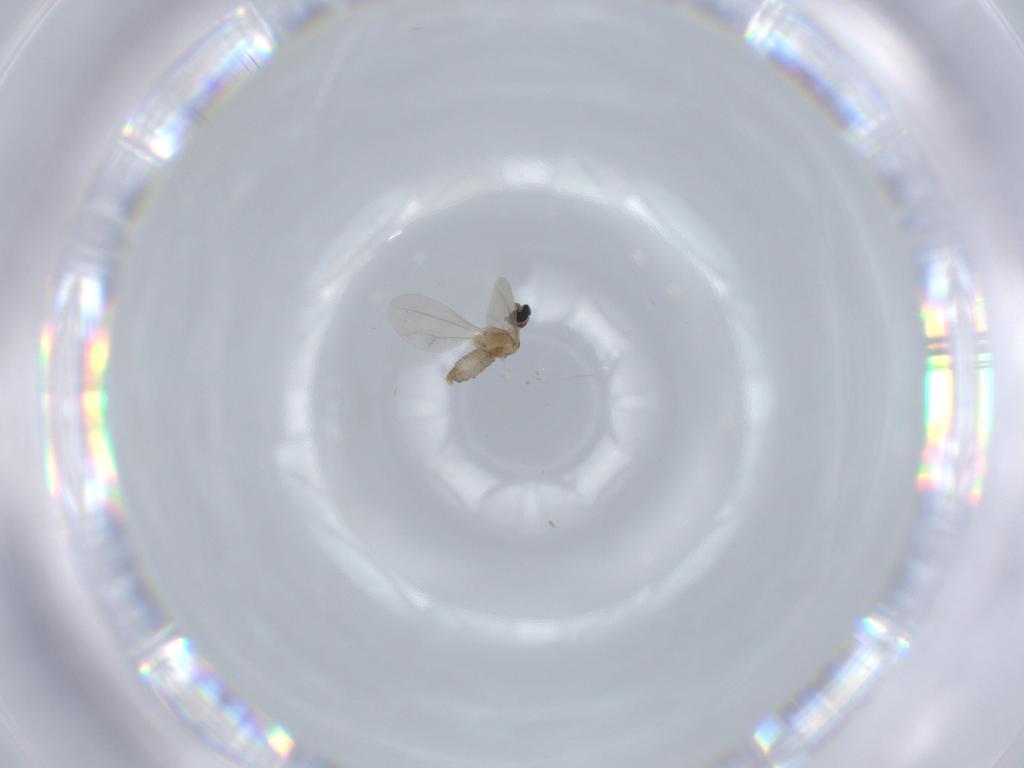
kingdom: Animalia
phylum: Arthropoda
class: Insecta
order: Diptera
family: Cecidomyiidae
